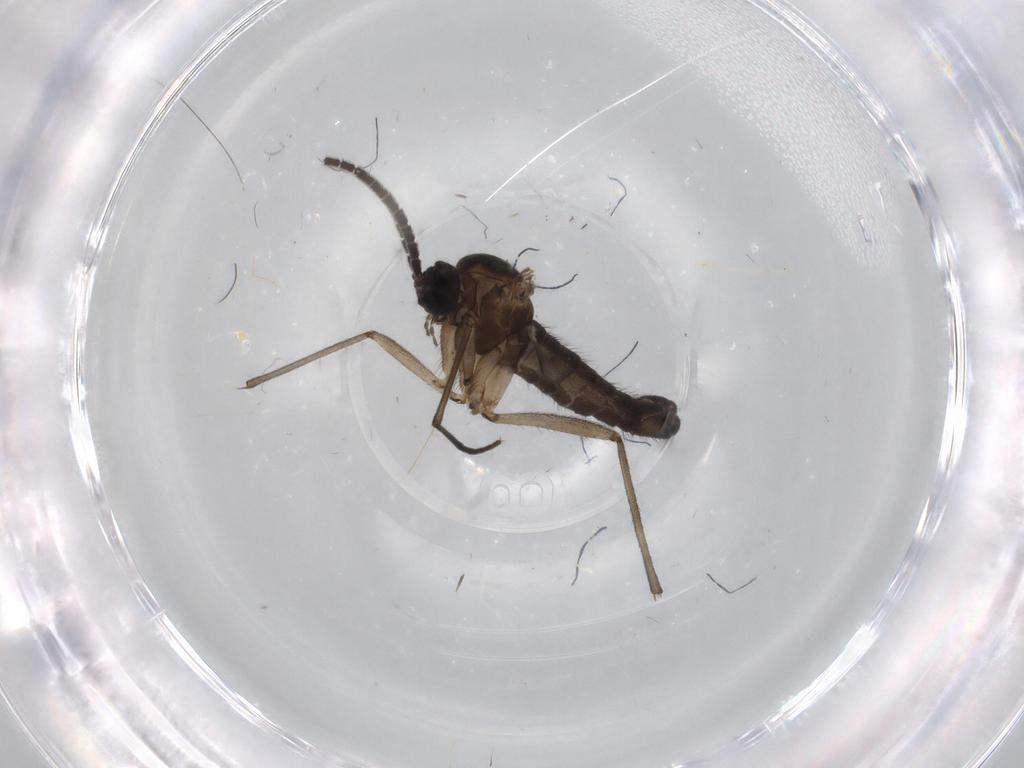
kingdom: Animalia
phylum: Arthropoda
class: Insecta
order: Diptera
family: Sciaridae
